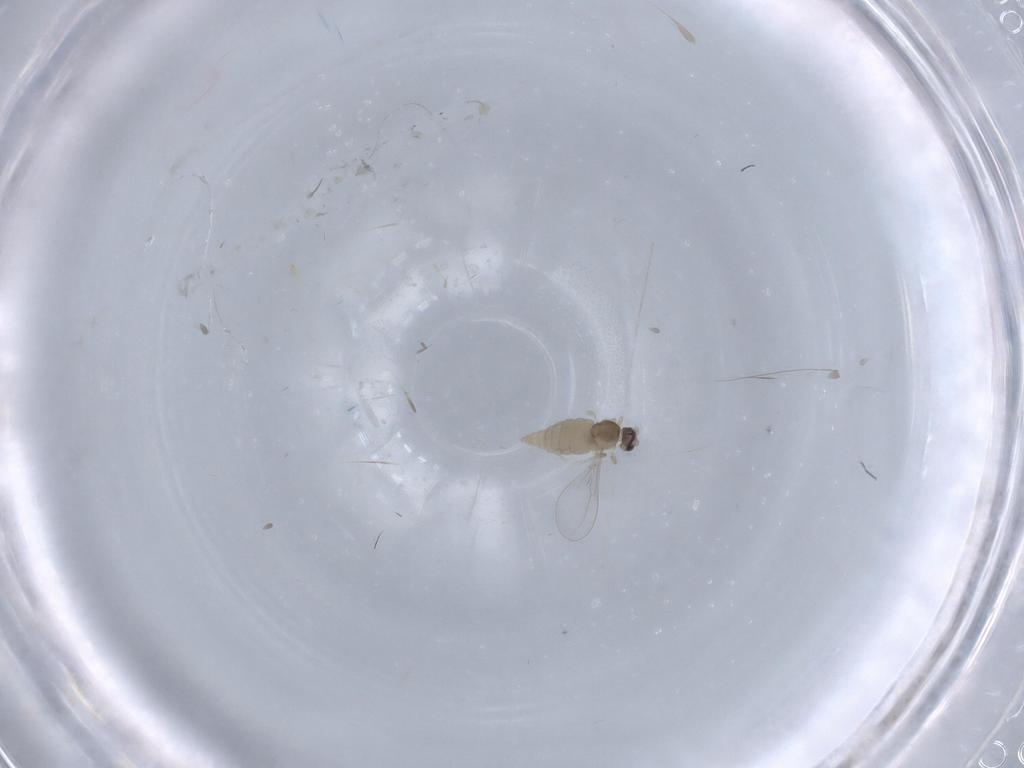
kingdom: Animalia
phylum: Arthropoda
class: Insecta
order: Diptera
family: Cecidomyiidae
